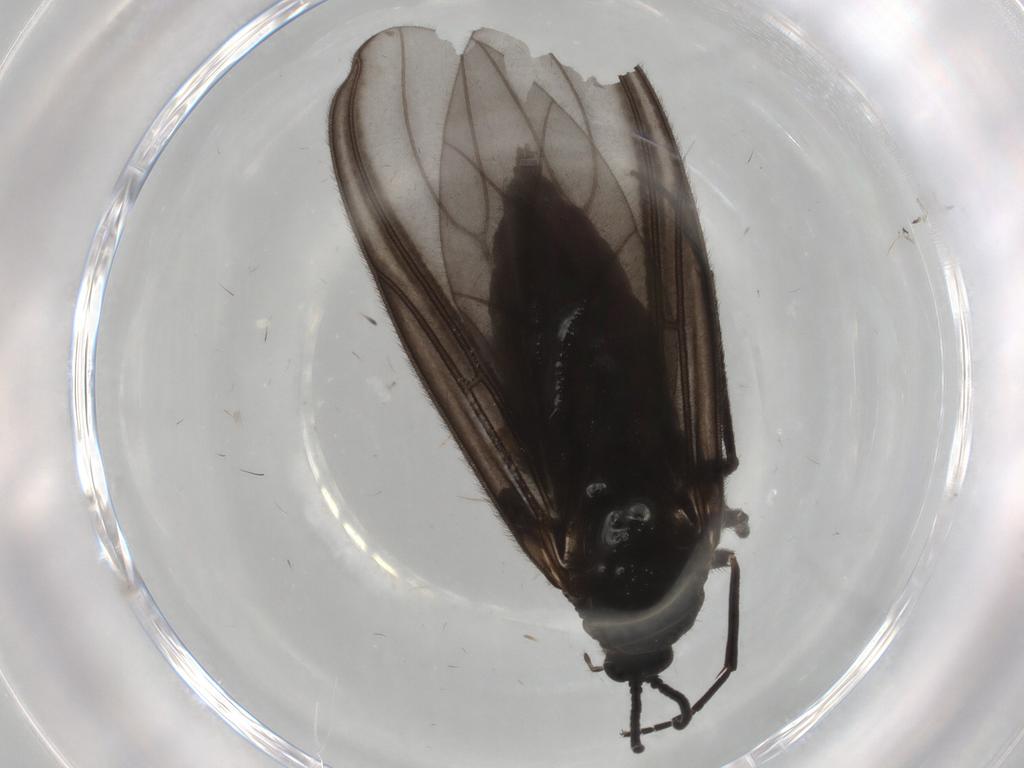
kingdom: Animalia
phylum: Arthropoda
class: Insecta
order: Diptera
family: Sciaridae
